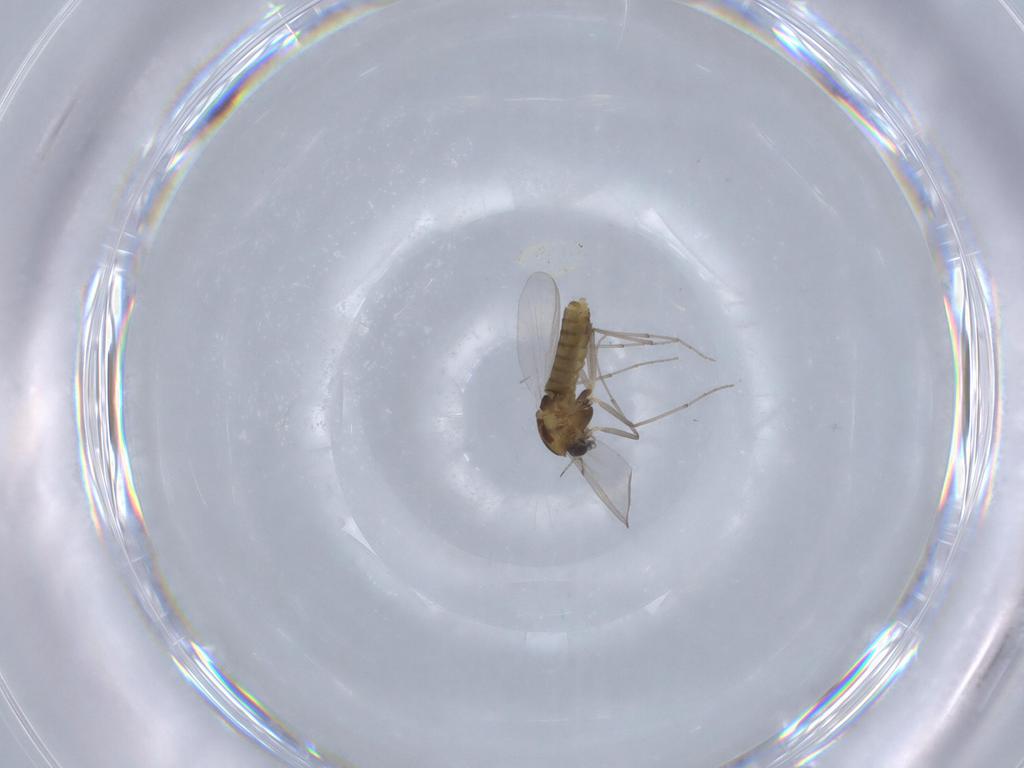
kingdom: Animalia
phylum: Arthropoda
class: Insecta
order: Diptera
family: Chironomidae
